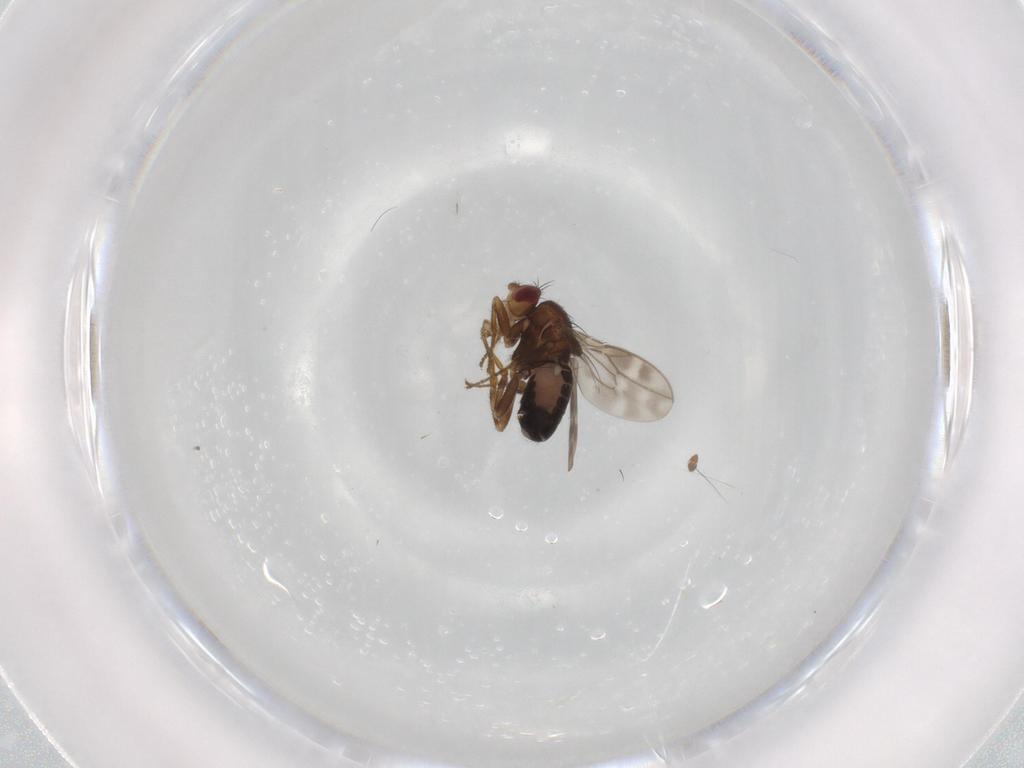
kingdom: Animalia
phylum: Arthropoda
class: Insecta
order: Diptera
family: Sphaeroceridae
